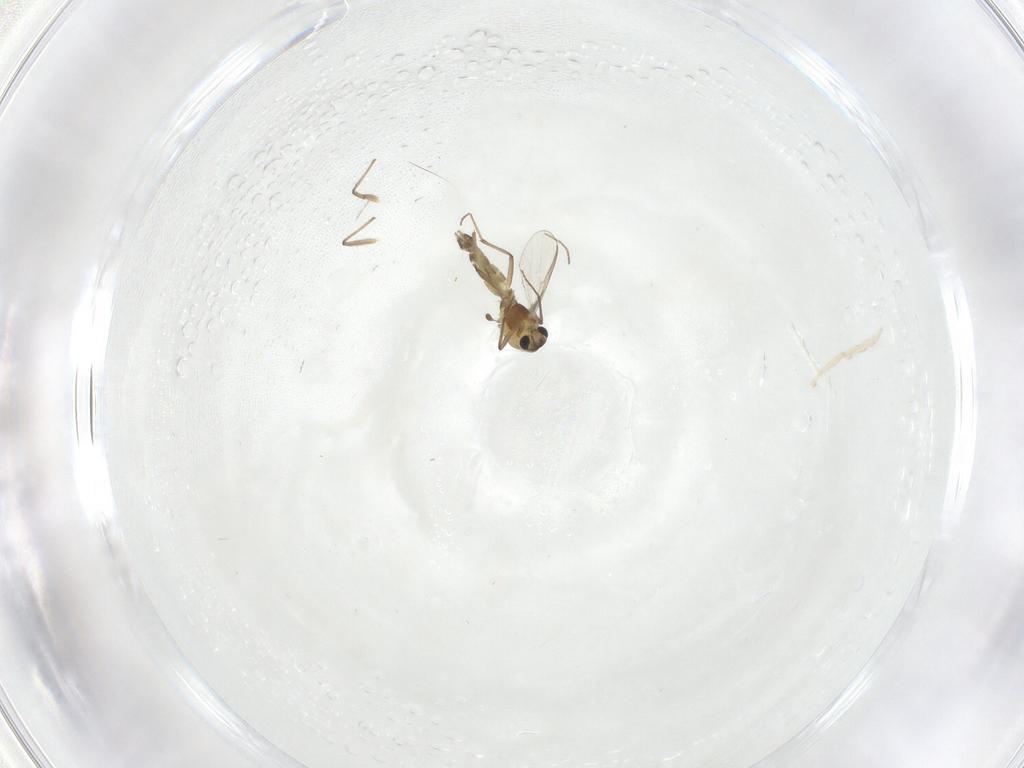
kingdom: Animalia
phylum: Arthropoda
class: Insecta
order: Diptera
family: Chironomidae
